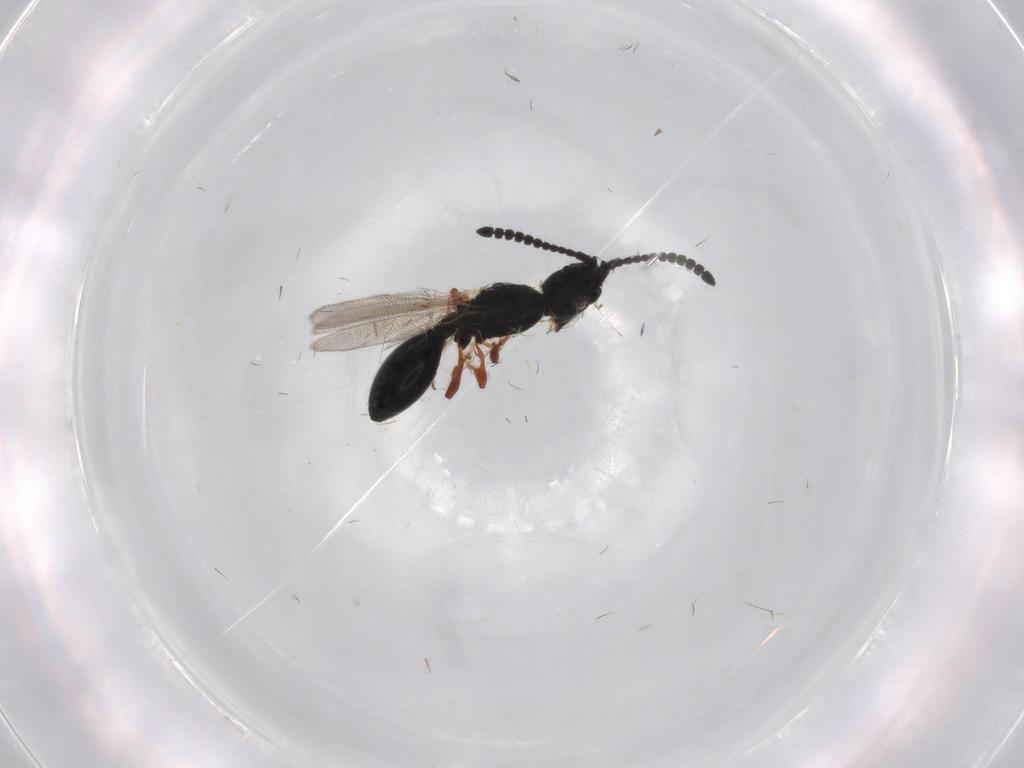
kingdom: Animalia
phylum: Arthropoda
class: Insecta
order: Hymenoptera
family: Diapriidae
